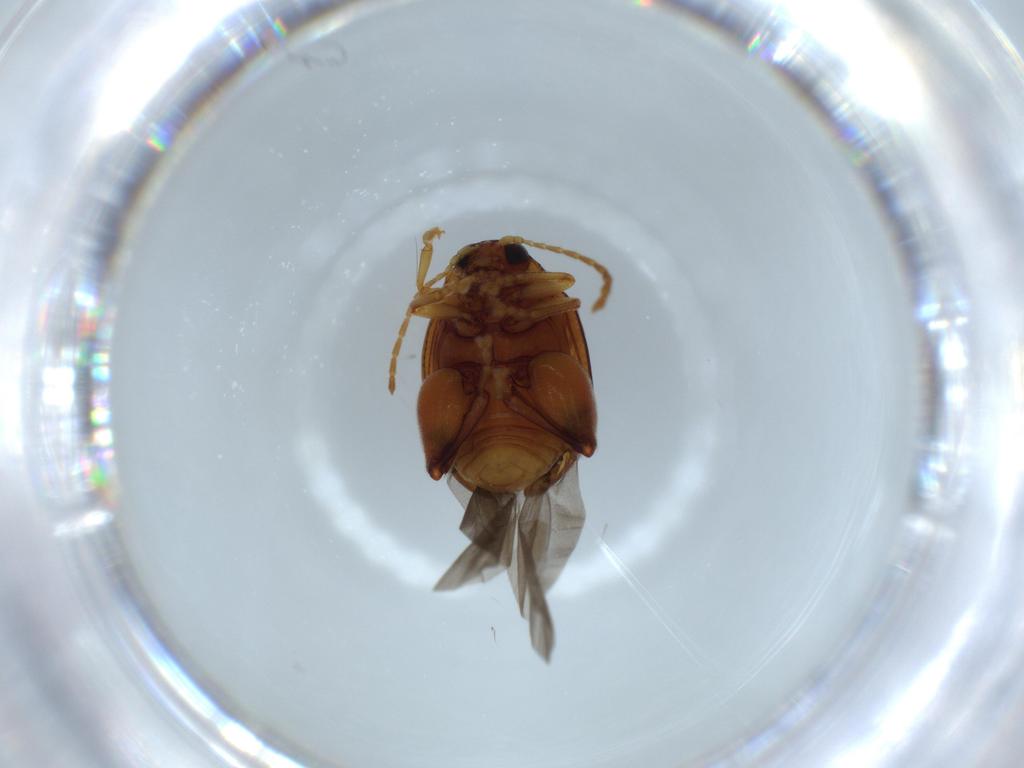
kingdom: Animalia
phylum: Arthropoda
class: Insecta
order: Coleoptera
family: Chrysomelidae
